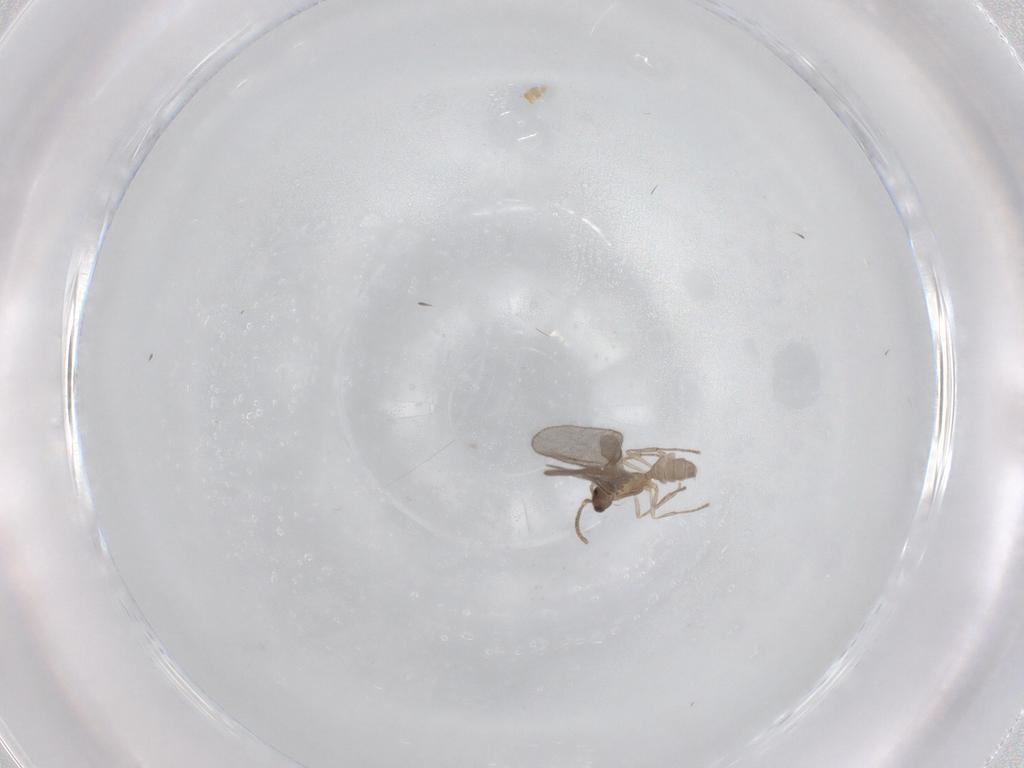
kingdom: Animalia
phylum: Arthropoda
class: Insecta
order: Hymenoptera
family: Formicidae
